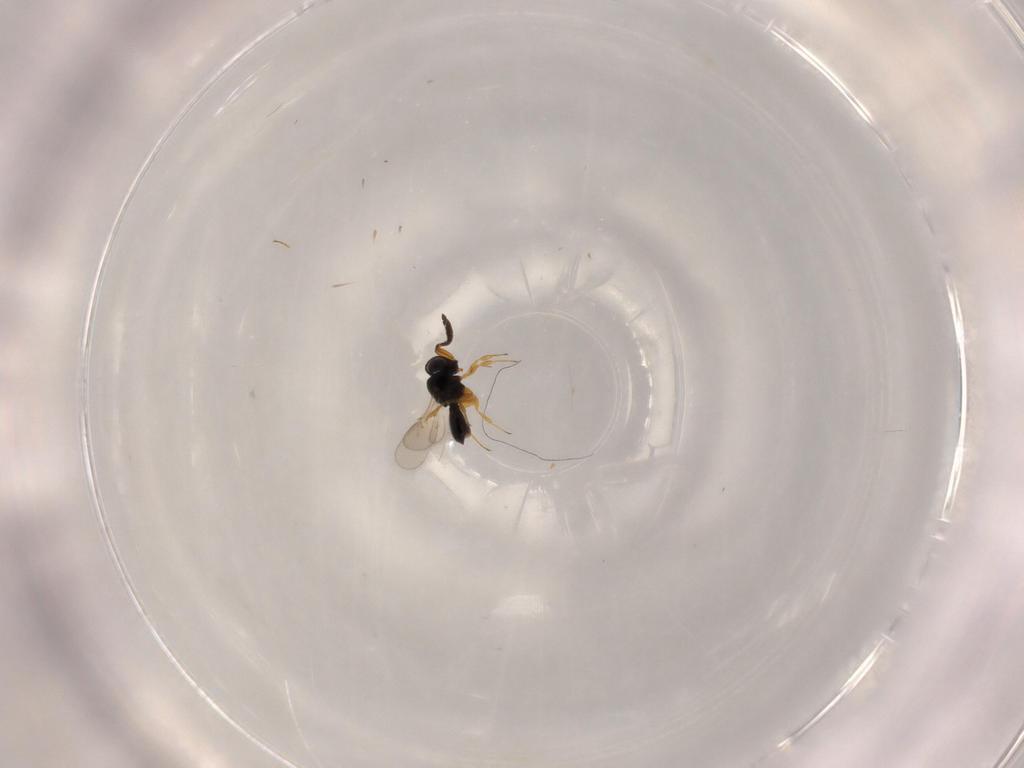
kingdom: Animalia
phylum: Arthropoda
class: Insecta
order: Hymenoptera
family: Scelionidae
